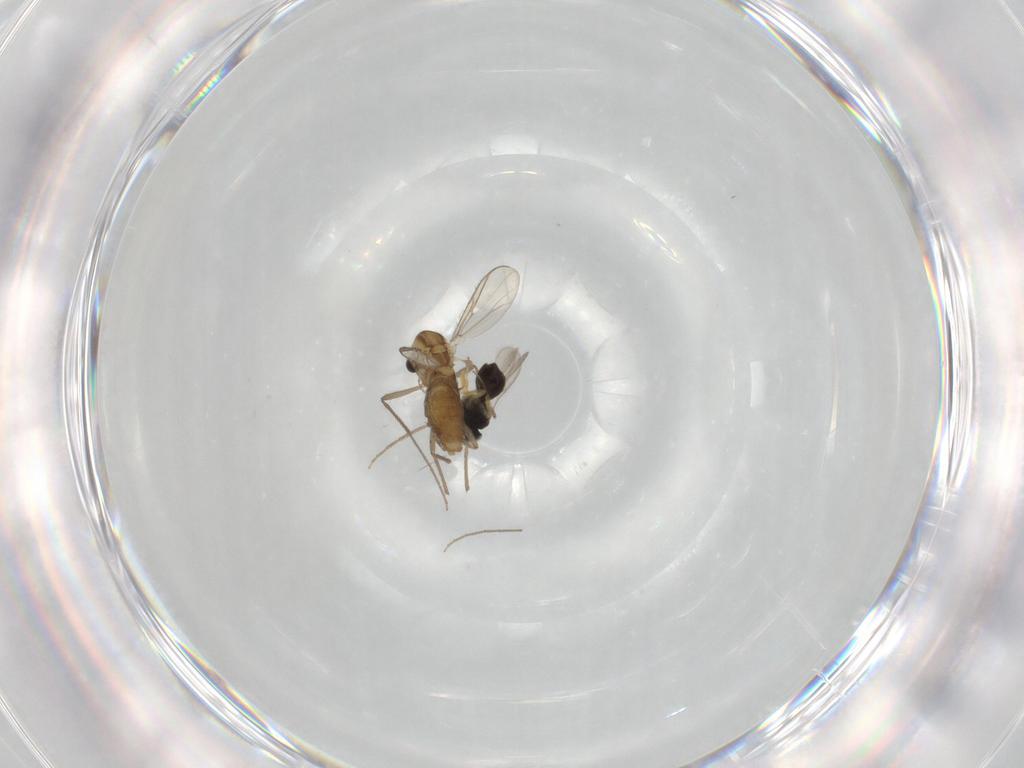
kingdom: Animalia
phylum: Arthropoda
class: Insecta
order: Diptera
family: Chironomidae
